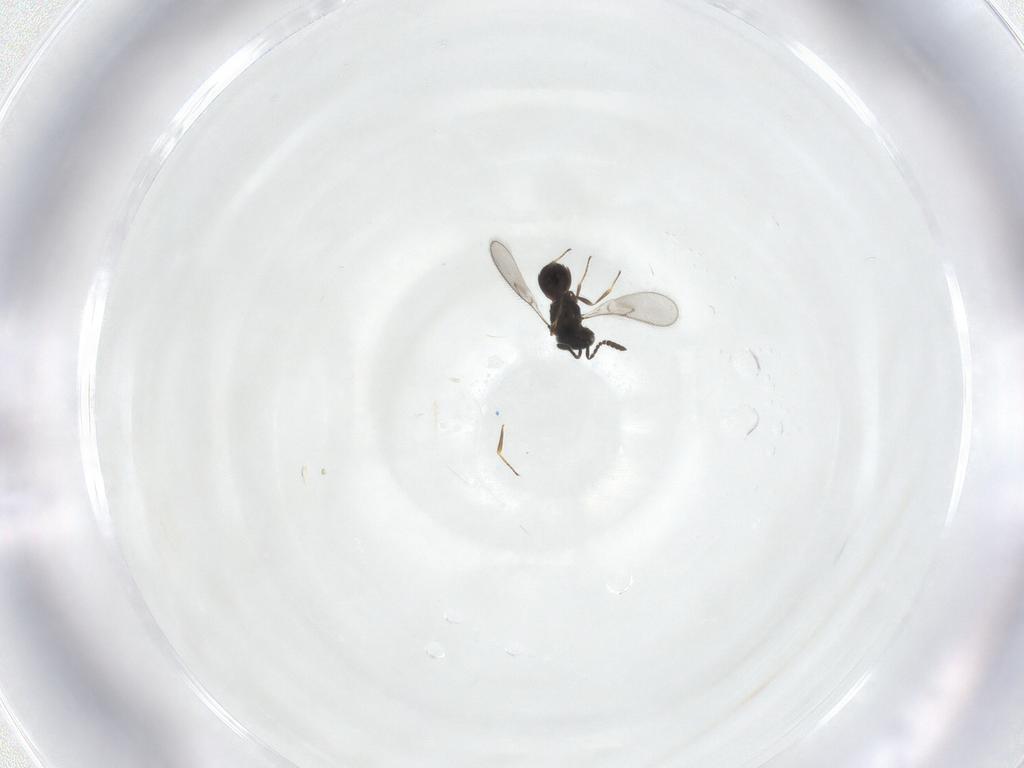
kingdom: Animalia
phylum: Arthropoda
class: Insecta
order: Hymenoptera
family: Scelionidae
